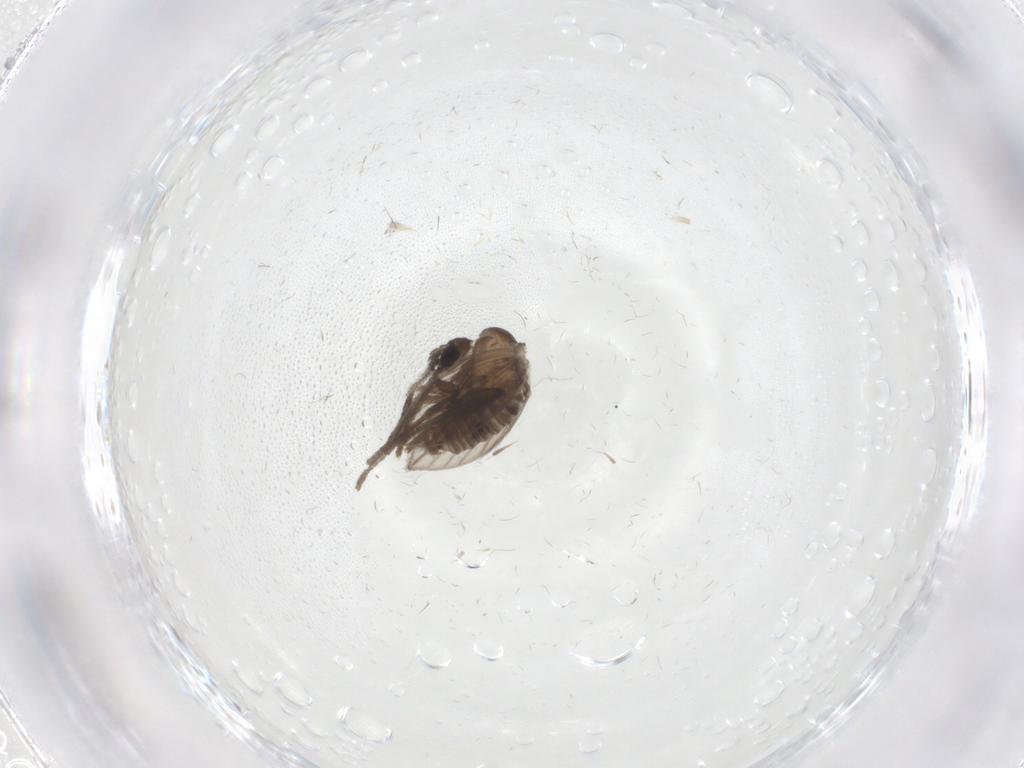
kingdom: Animalia
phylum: Arthropoda
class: Insecta
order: Diptera
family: Psychodidae
